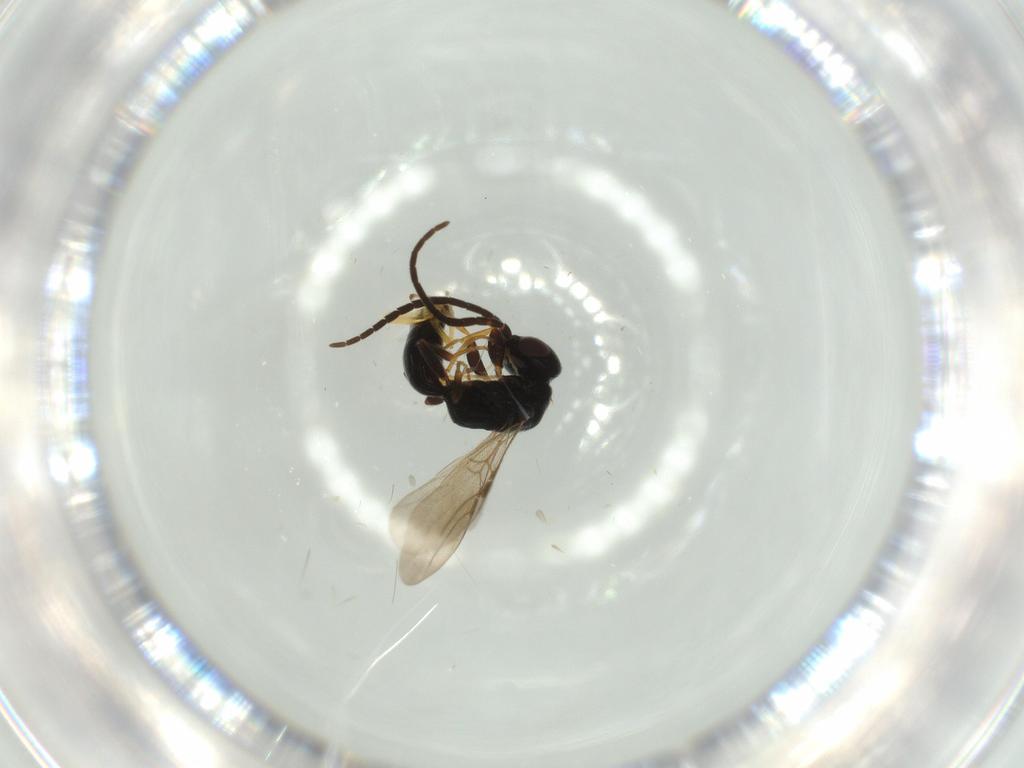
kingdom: Animalia
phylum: Arthropoda
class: Insecta
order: Hymenoptera
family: Bethylidae
